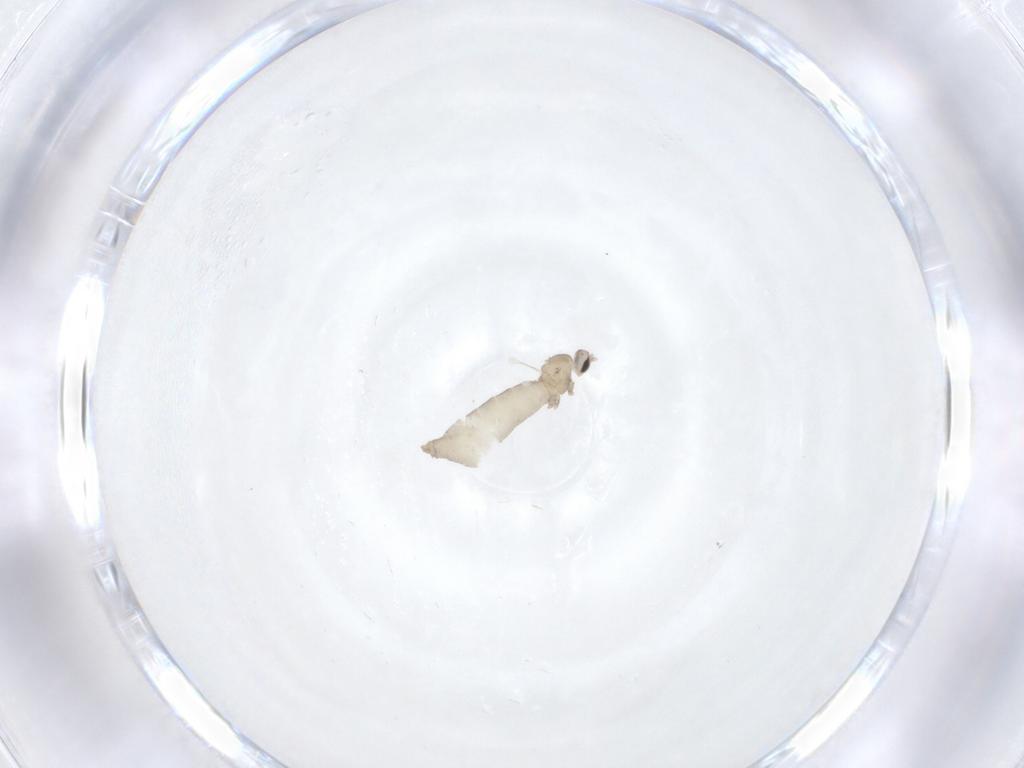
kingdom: Animalia
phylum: Arthropoda
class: Insecta
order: Diptera
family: Cecidomyiidae
